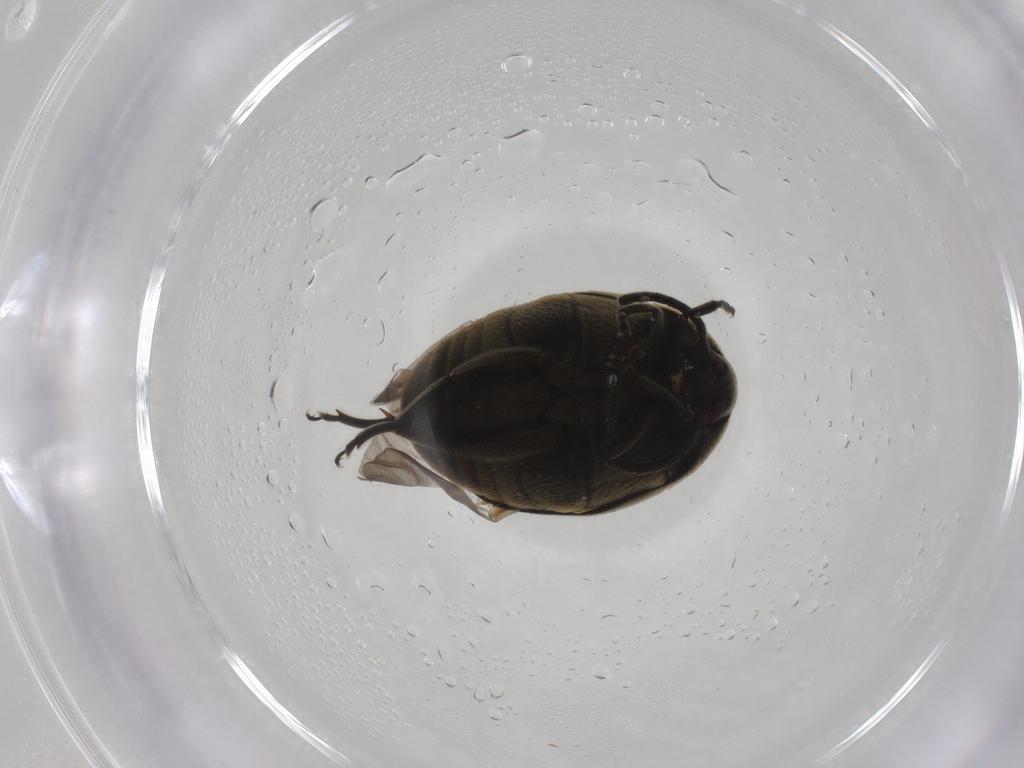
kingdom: Animalia
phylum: Arthropoda
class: Insecta
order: Coleoptera
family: Chrysomelidae
